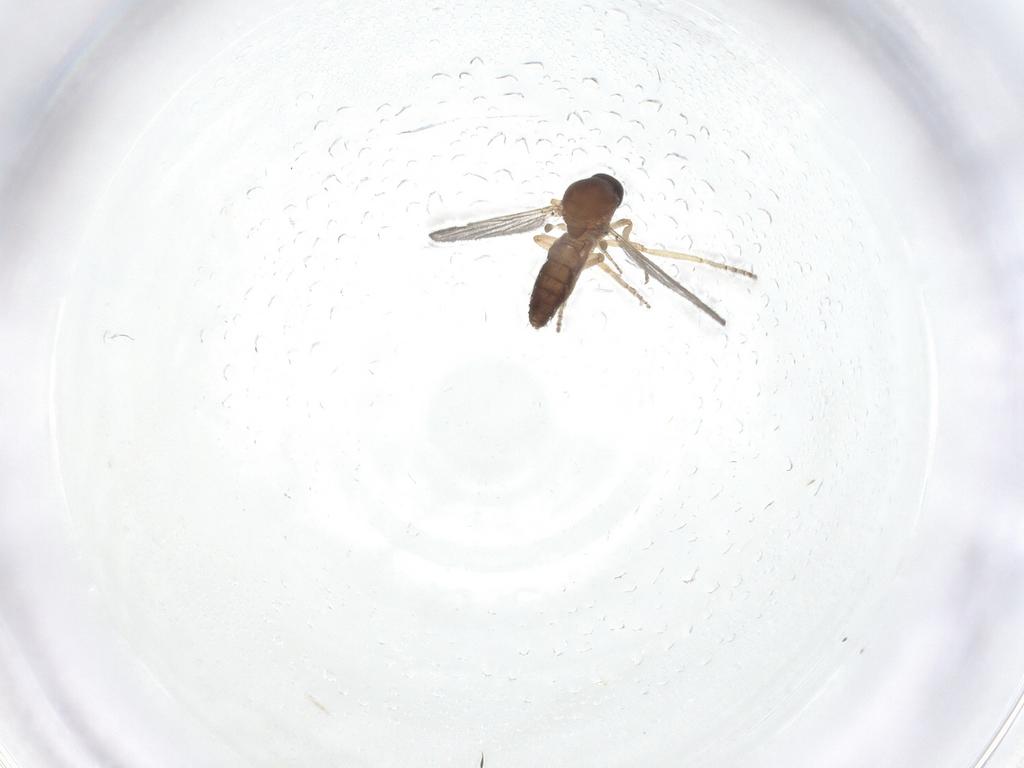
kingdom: Animalia
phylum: Arthropoda
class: Insecta
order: Diptera
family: Ceratopogonidae
